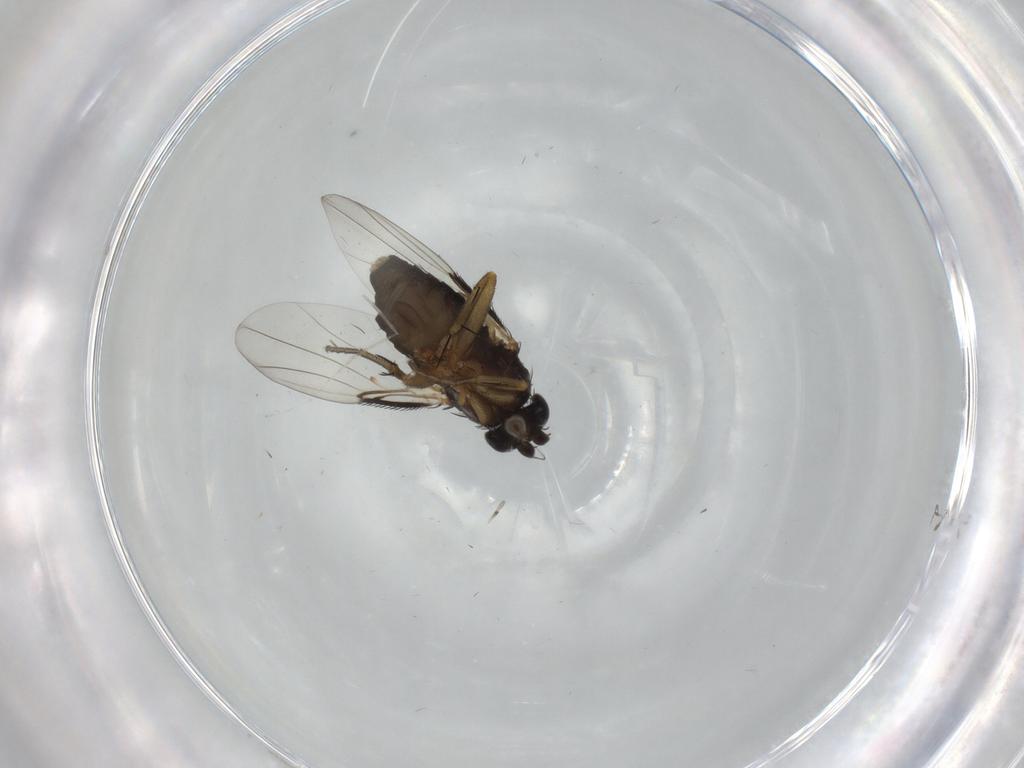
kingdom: Animalia
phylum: Arthropoda
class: Insecta
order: Diptera
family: Phoridae
